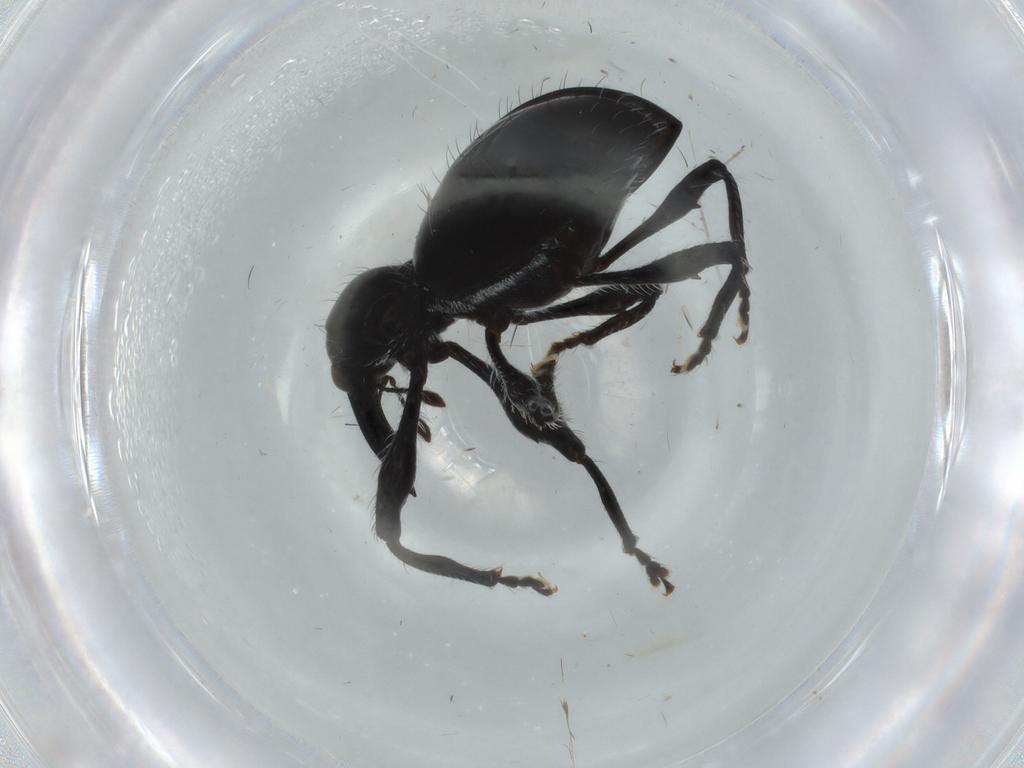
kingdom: Animalia
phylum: Arthropoda
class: Insecta
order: Coleoptera
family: Curculionidae
